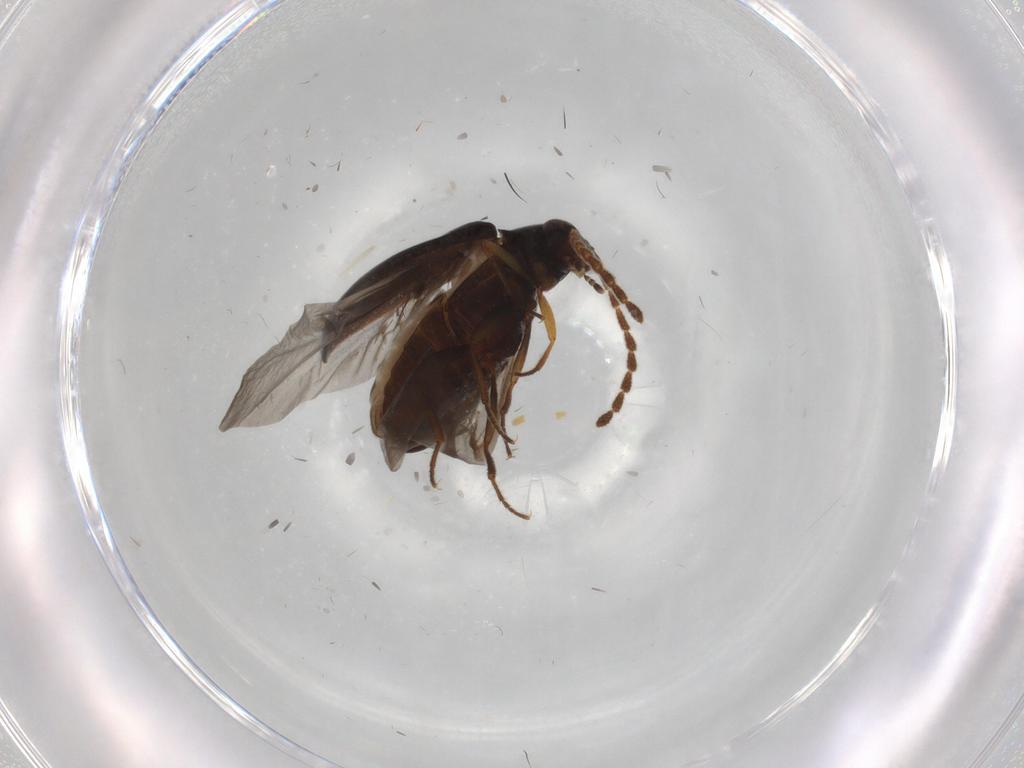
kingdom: Animalia
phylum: Arthropoda
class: Insecta
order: Coleoptera
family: Tenebrionidae
